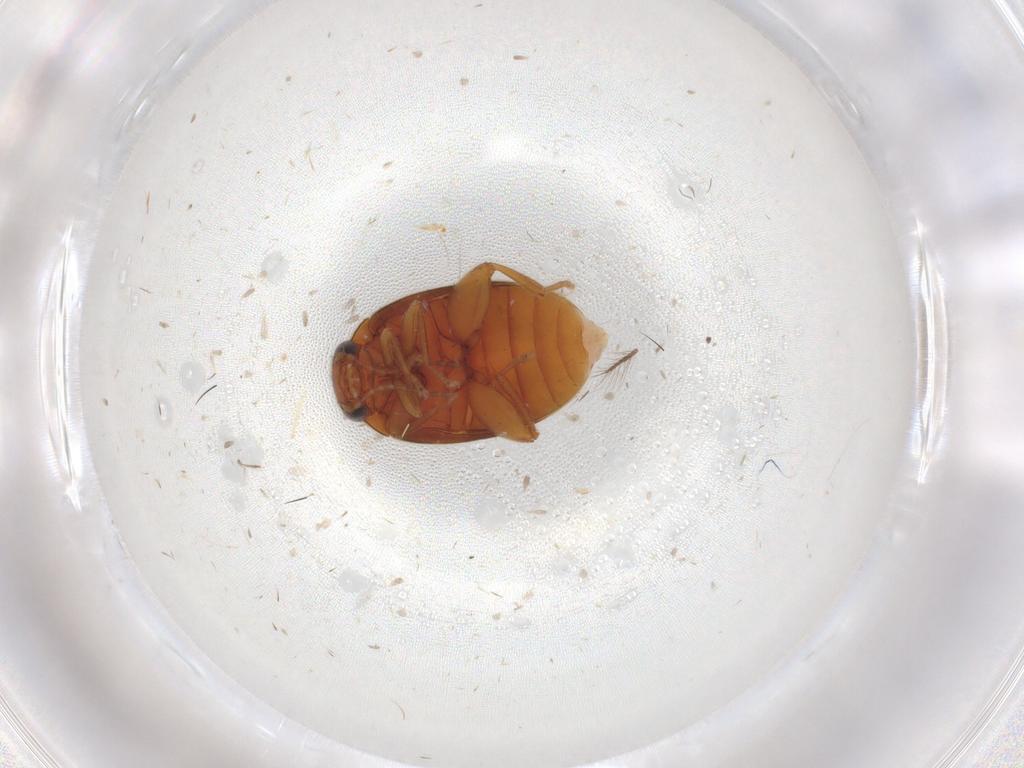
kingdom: Animalia
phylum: Arthropoda
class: Insecta
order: Coleoptera
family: Scirtidae
